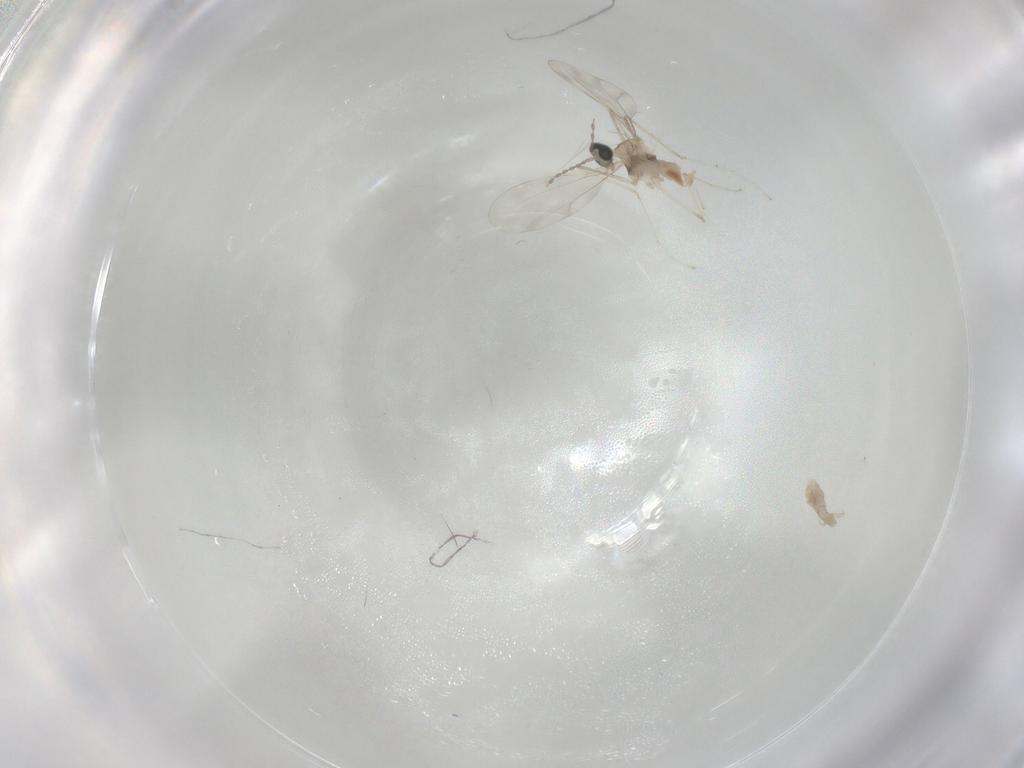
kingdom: Animalia
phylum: Arthropoda
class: Insecta
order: Diptera
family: Cecidomyiidae
